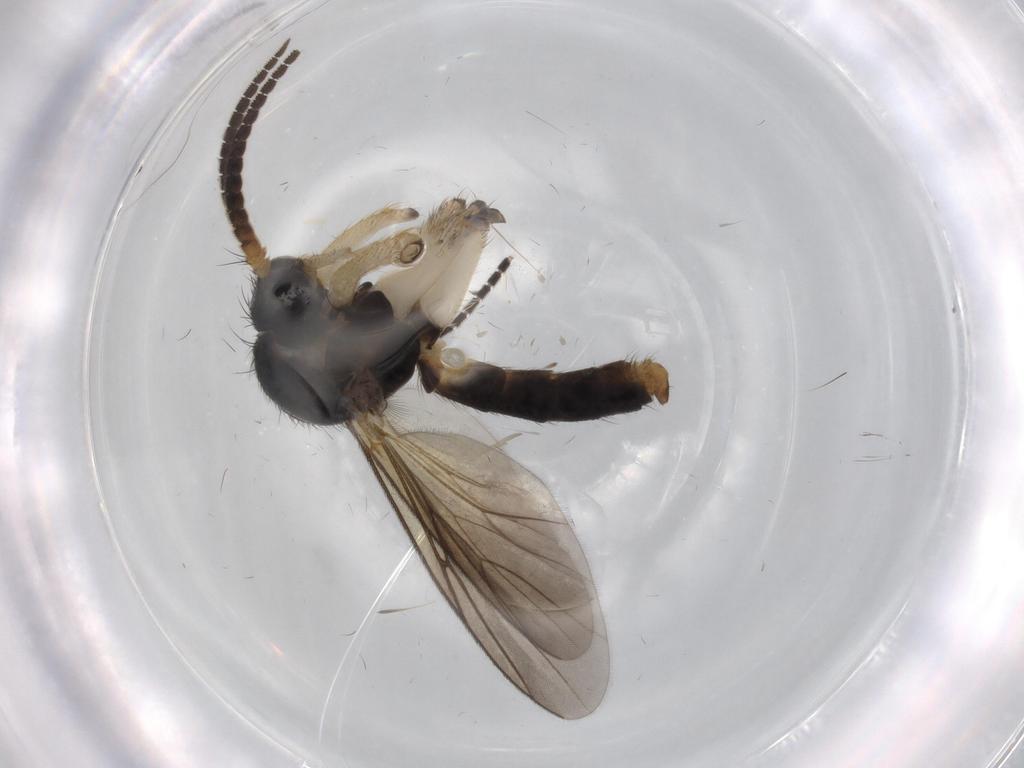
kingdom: Animalia
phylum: Arthropoda
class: Insecta
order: Diptera
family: Sciaridae
